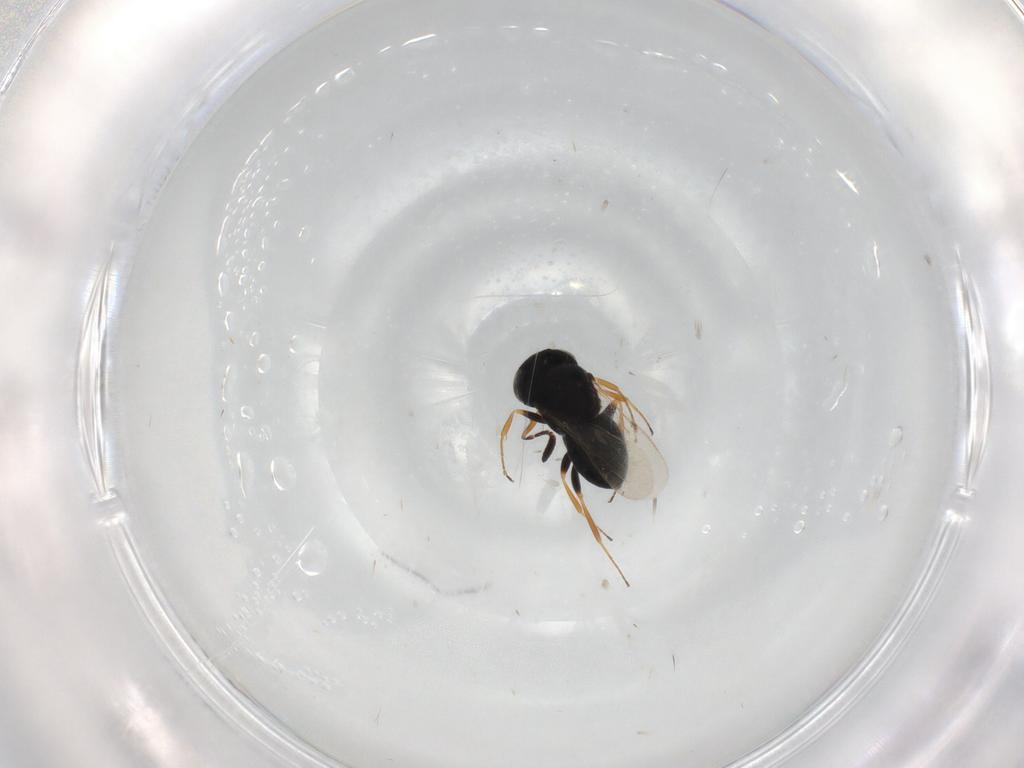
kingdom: Animalia
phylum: Arthropoda
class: Insecta
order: Coleoptera
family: Curculionidae
